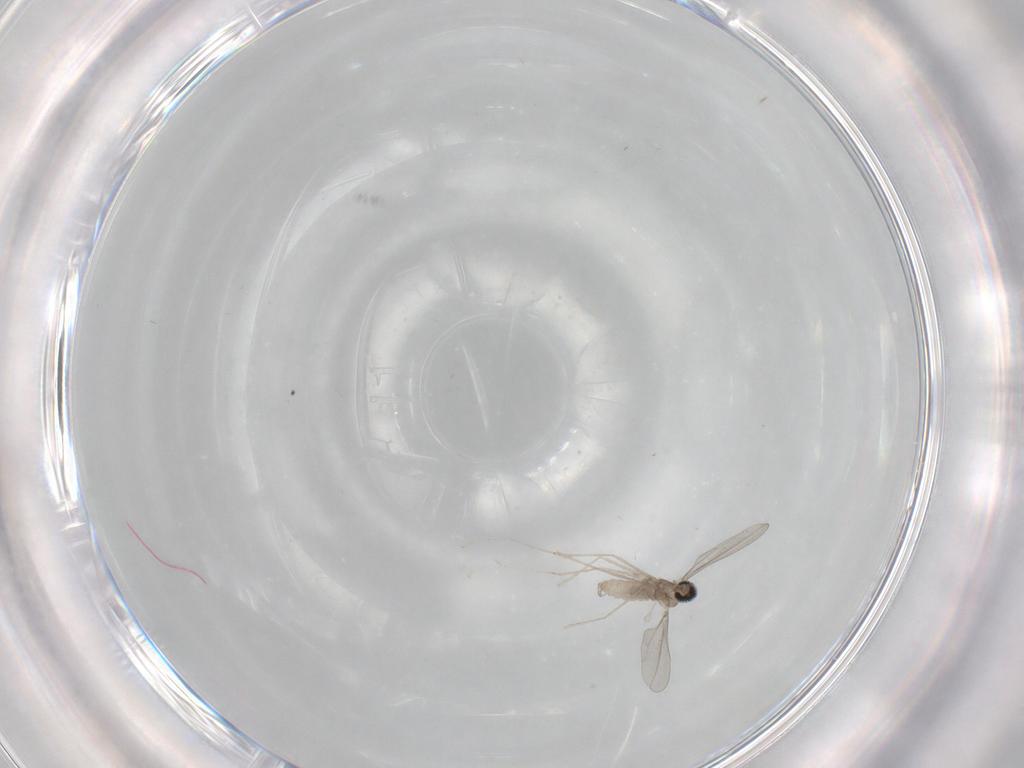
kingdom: Animalia
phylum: Arthropoda
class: Insecta
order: Diptera
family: Cecidomyiidae
